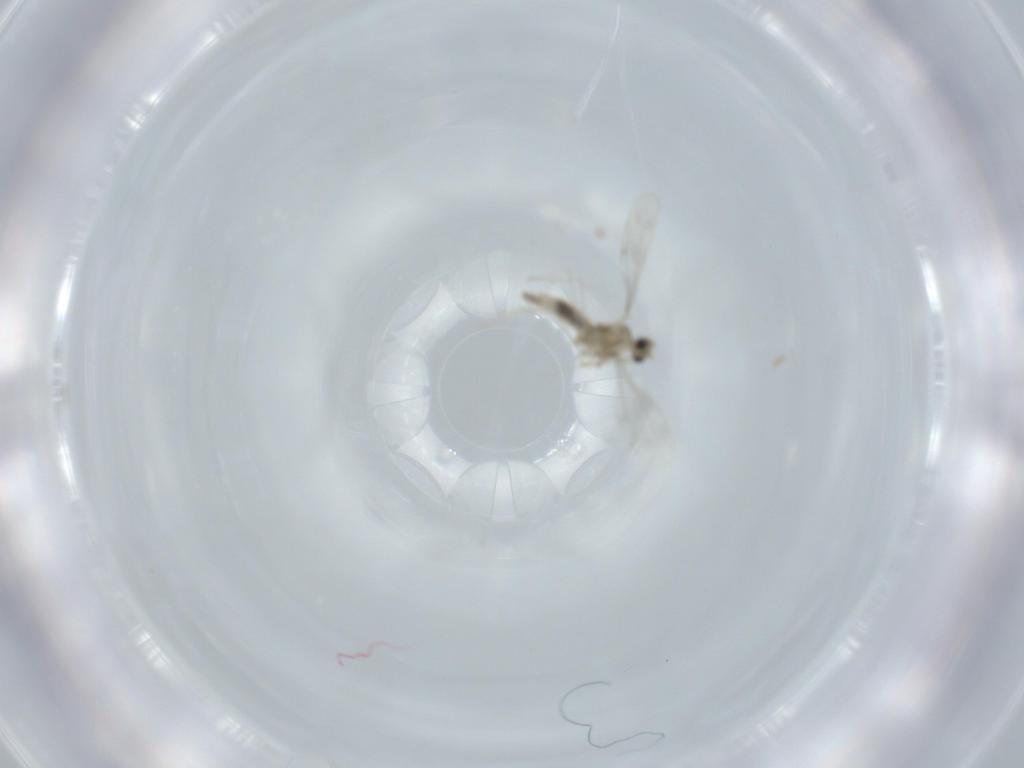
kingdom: Animalia
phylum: Arthropoda
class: Insecta
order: Diptera
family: Cecidomyiidae
